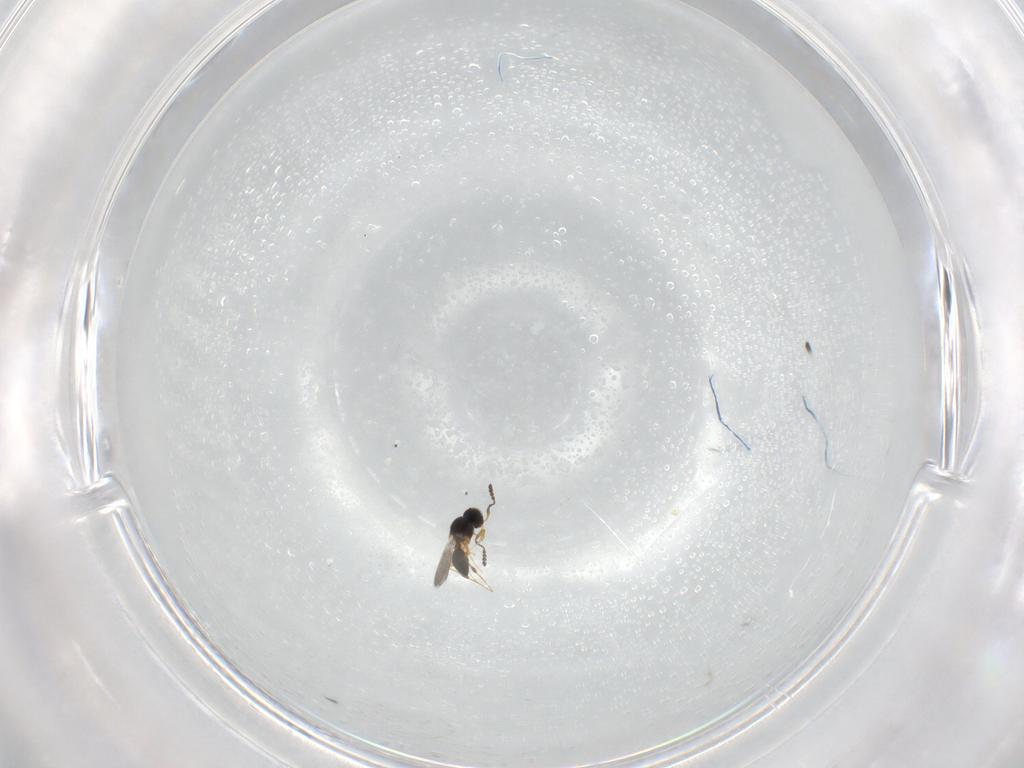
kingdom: Animalia
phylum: Arthropoda
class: Insecta
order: Hymenoptera
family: Platygastridae
